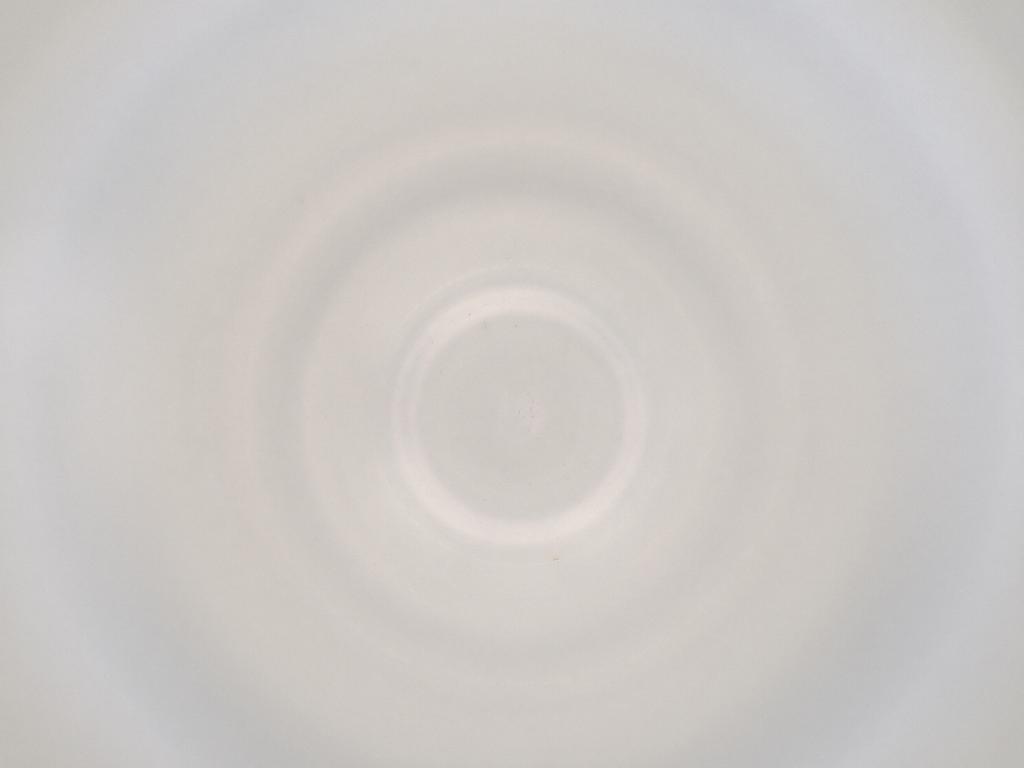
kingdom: Animalia
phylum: Arthropoda
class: Insecta
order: Diptera
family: Cecidomyiidae
